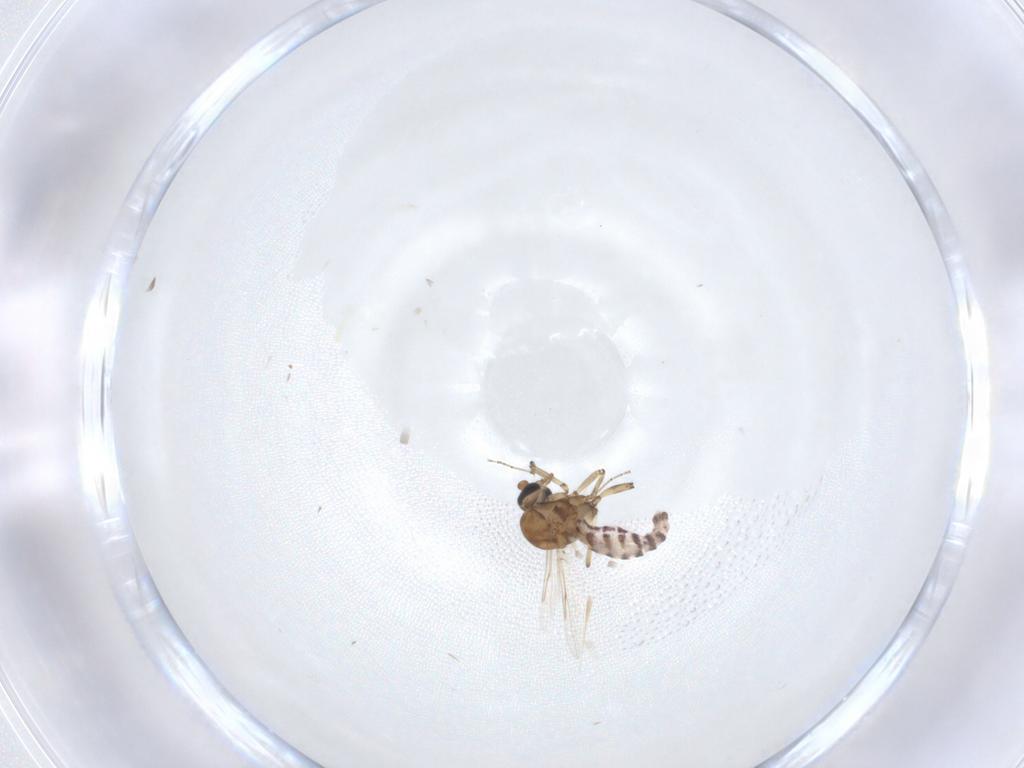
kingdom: Animalia
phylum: Arthropoda
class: Insecta
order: Diptera
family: Ceratopogonidae
